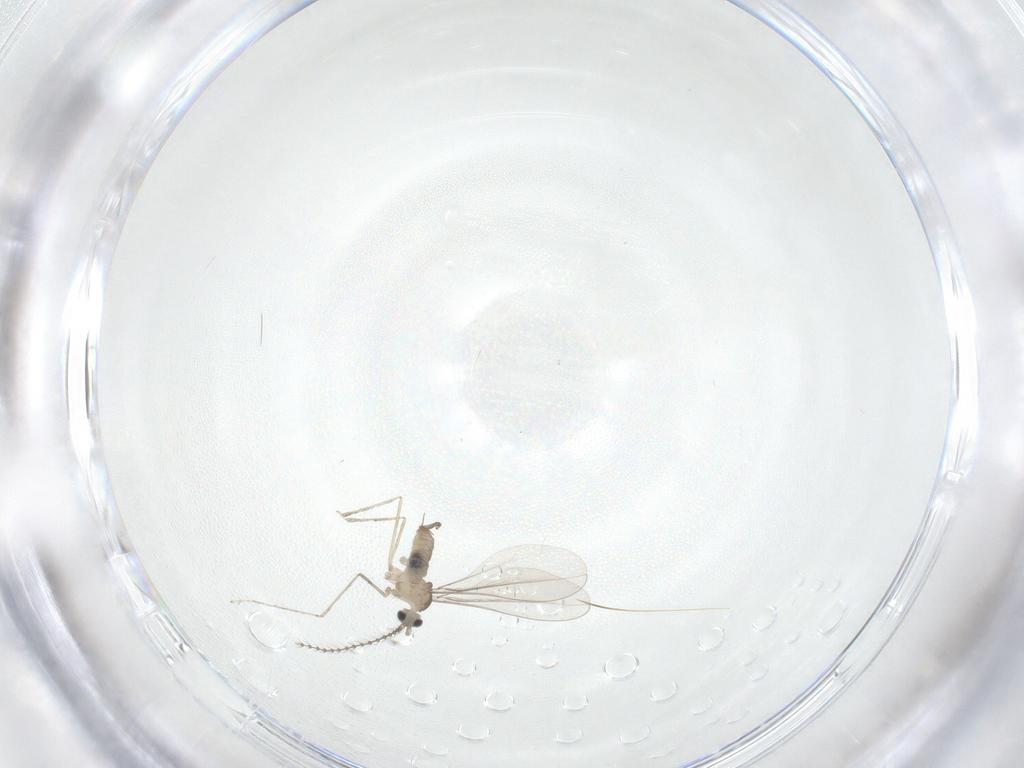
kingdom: Animalia
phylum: Arthropoda
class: Insecta
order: Diptera
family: Cecidomyiidae
